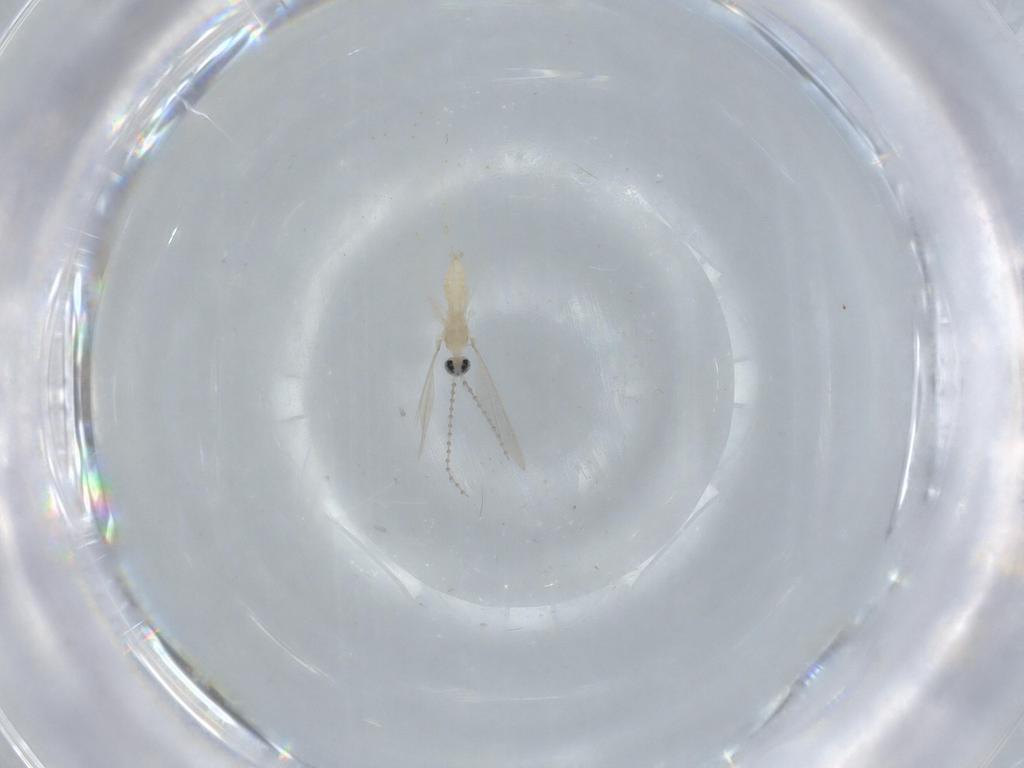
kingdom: Animalia
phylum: Arthropoda
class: Insecta
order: Diptera
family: Cecidomyiidae
